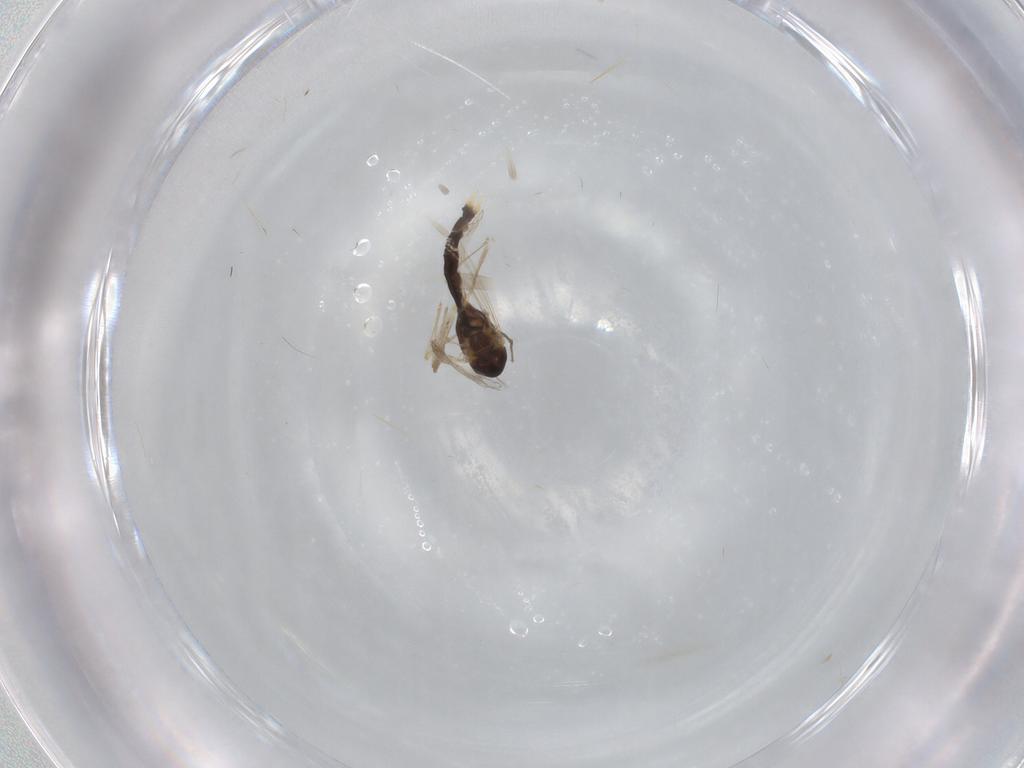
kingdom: Animalia
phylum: Arthropoda
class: Insecta
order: Diptera
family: Chironomidae
